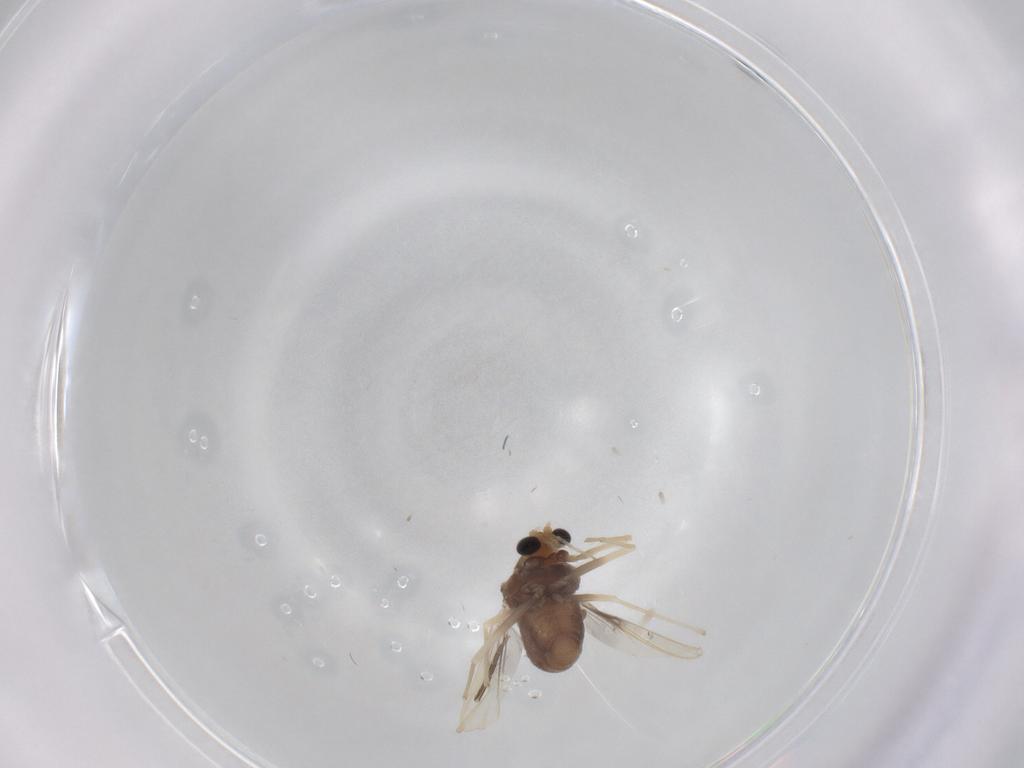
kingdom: Animalia
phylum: Arthropoda
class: Insecta
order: Diptera
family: Chironomidae
